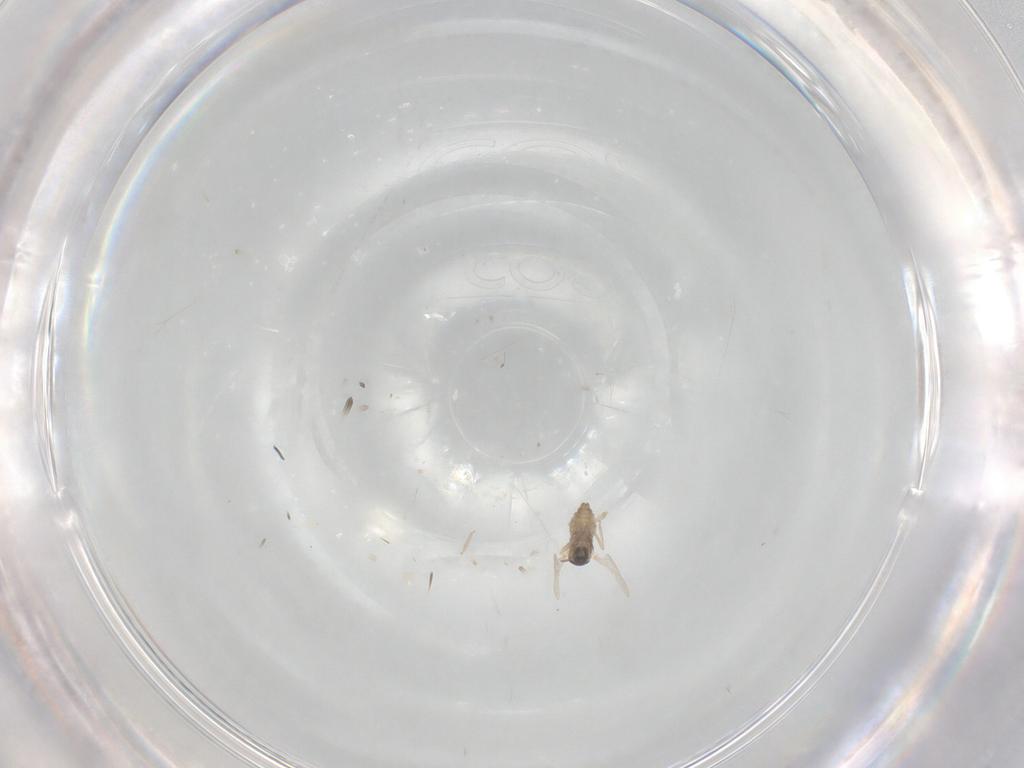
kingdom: Animalia
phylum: Arthropoda
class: Insecta
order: Diptera
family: Cecidomyiidae
